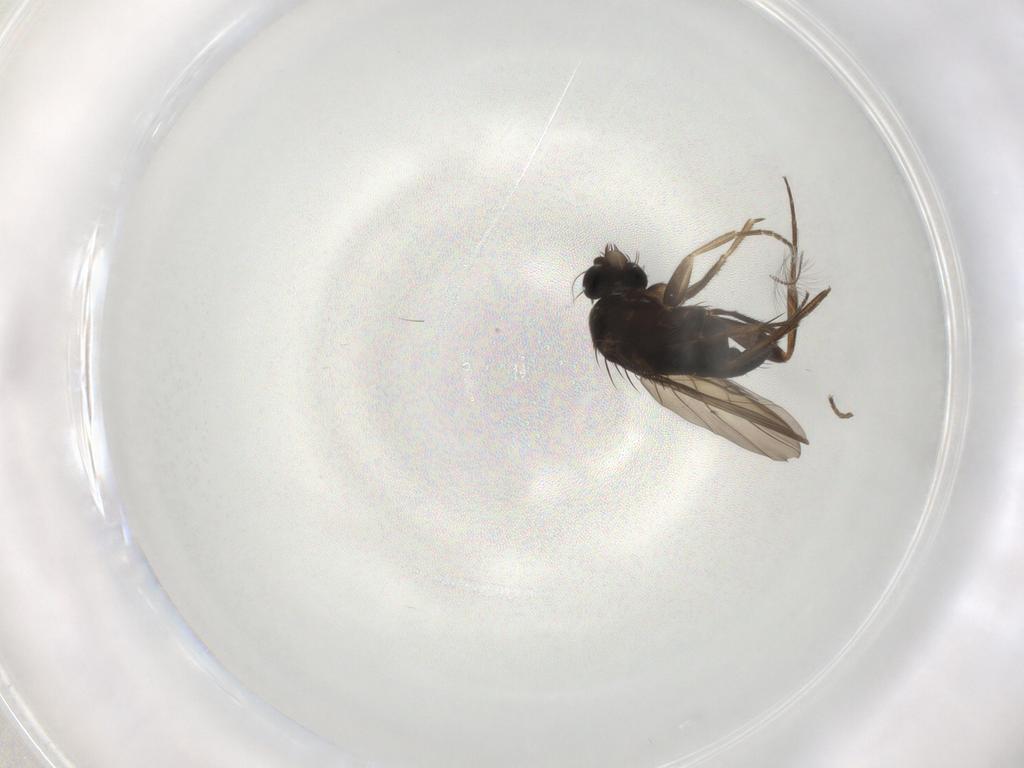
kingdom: Animalia
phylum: Arthropoda
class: Insecta
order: Diptera
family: Phoridae
